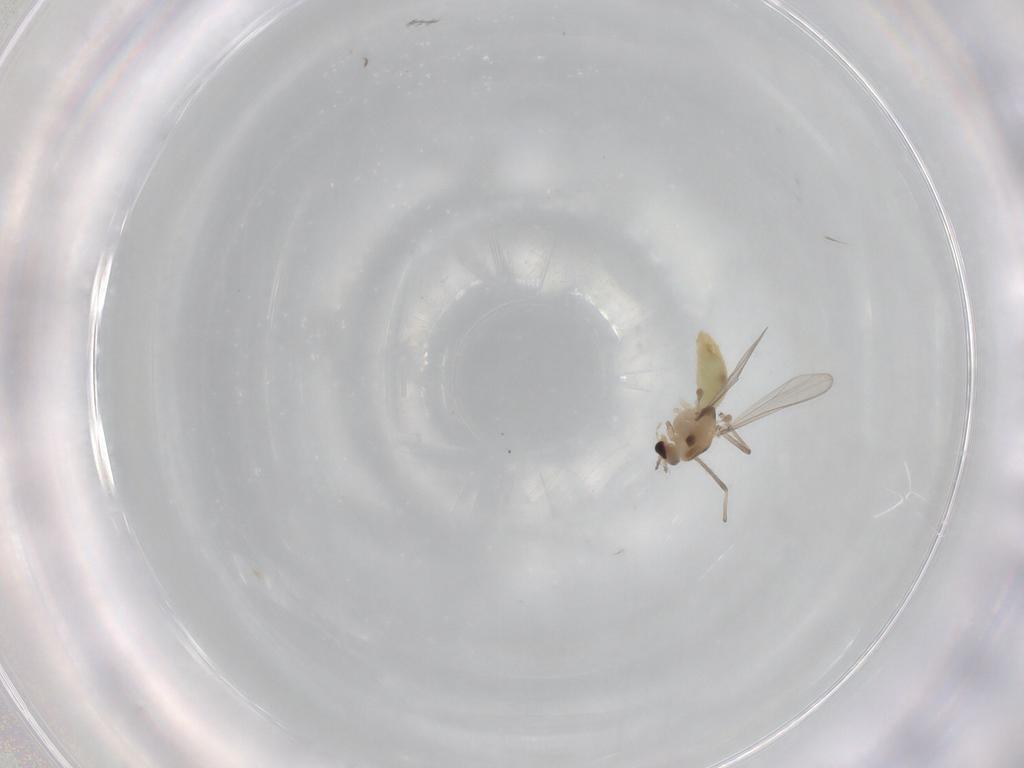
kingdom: Animalia
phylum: Arthropoda
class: Insecta
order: Diptera
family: Chironomidae
